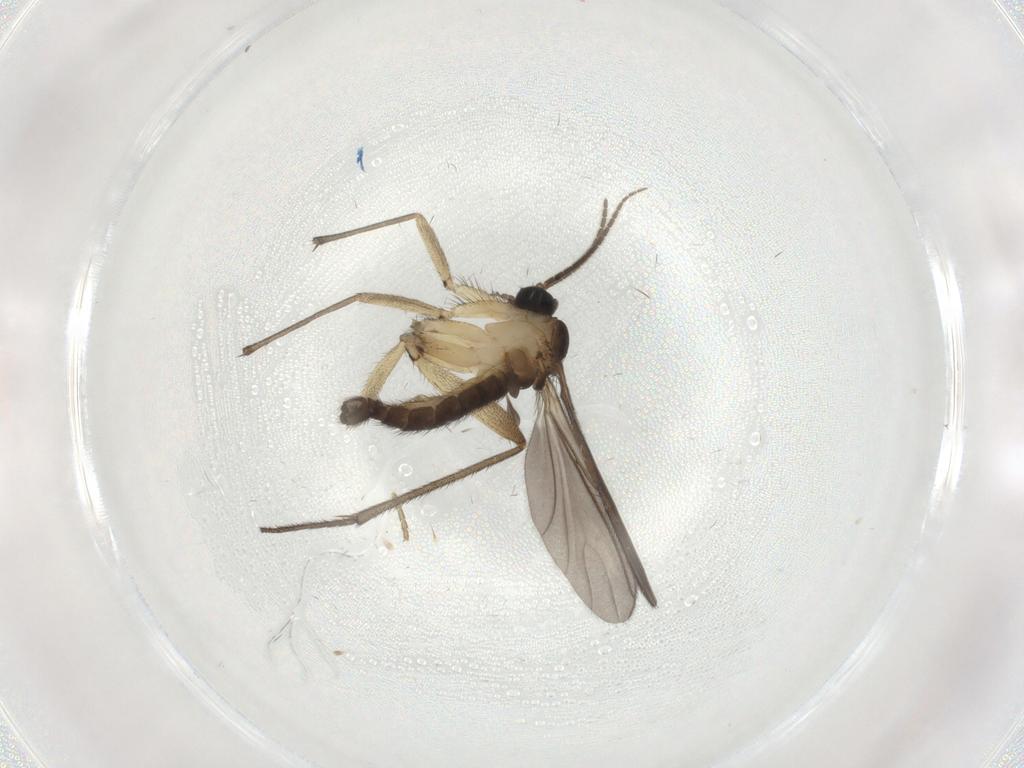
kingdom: Animalia
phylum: Arthropoda
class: Insecta
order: Diptera
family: Sciaridae
